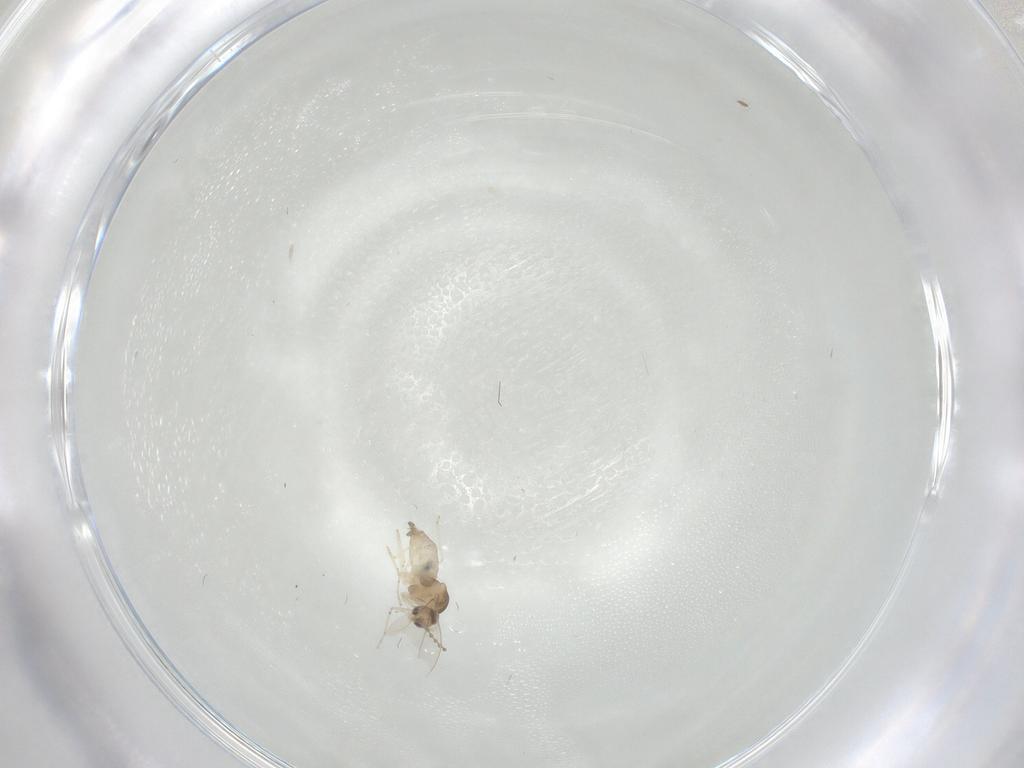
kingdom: Animalia
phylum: Arthropoda
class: Insecta
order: Diptera
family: Cecidomyiidae
